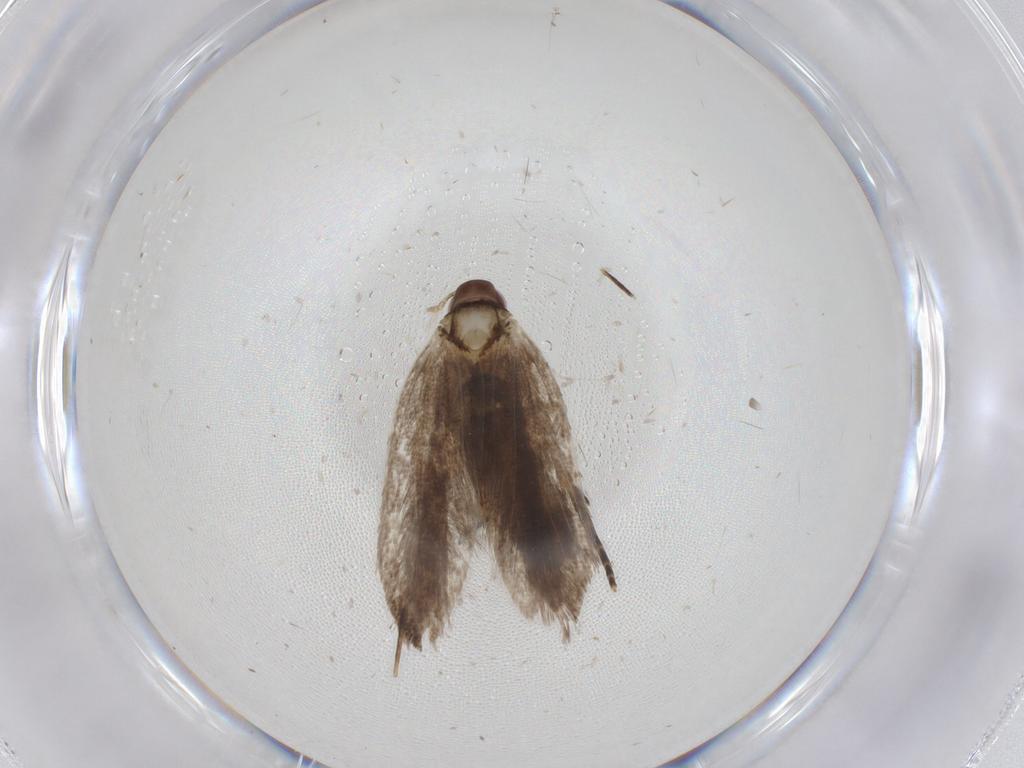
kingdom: Animalia
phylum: Arthropoda
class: Insecta
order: Lepidoptera
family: Gelechiidae
